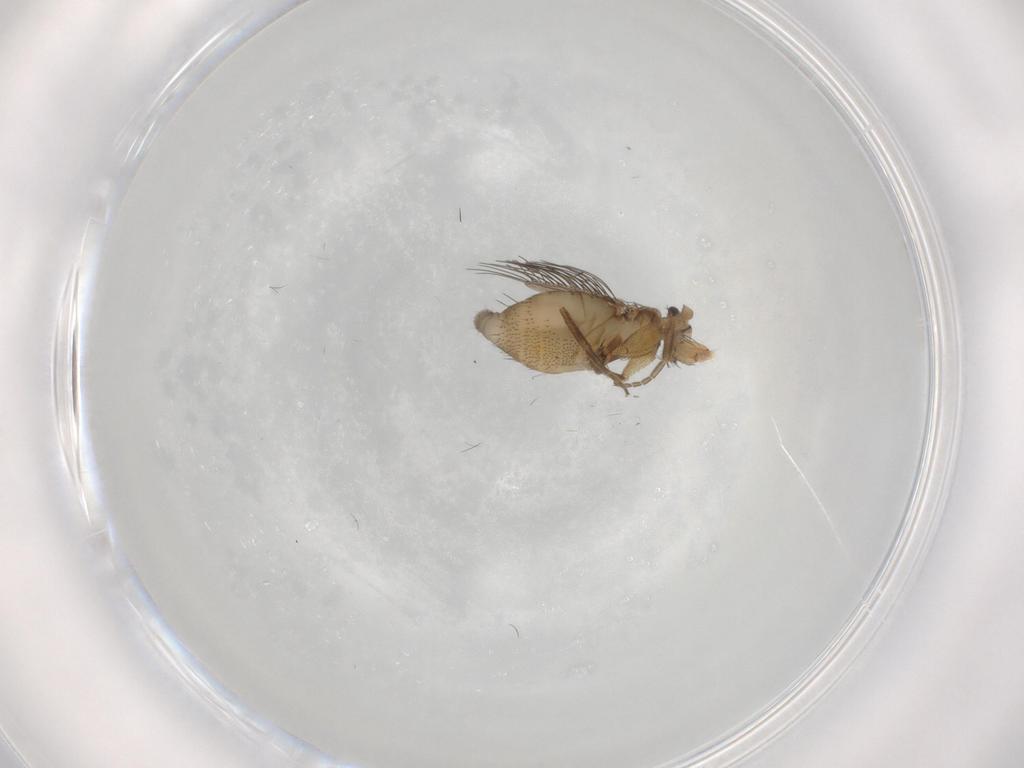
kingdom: Animalia
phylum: Arthropoda
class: Insecta
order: Diptera
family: Phoridae
